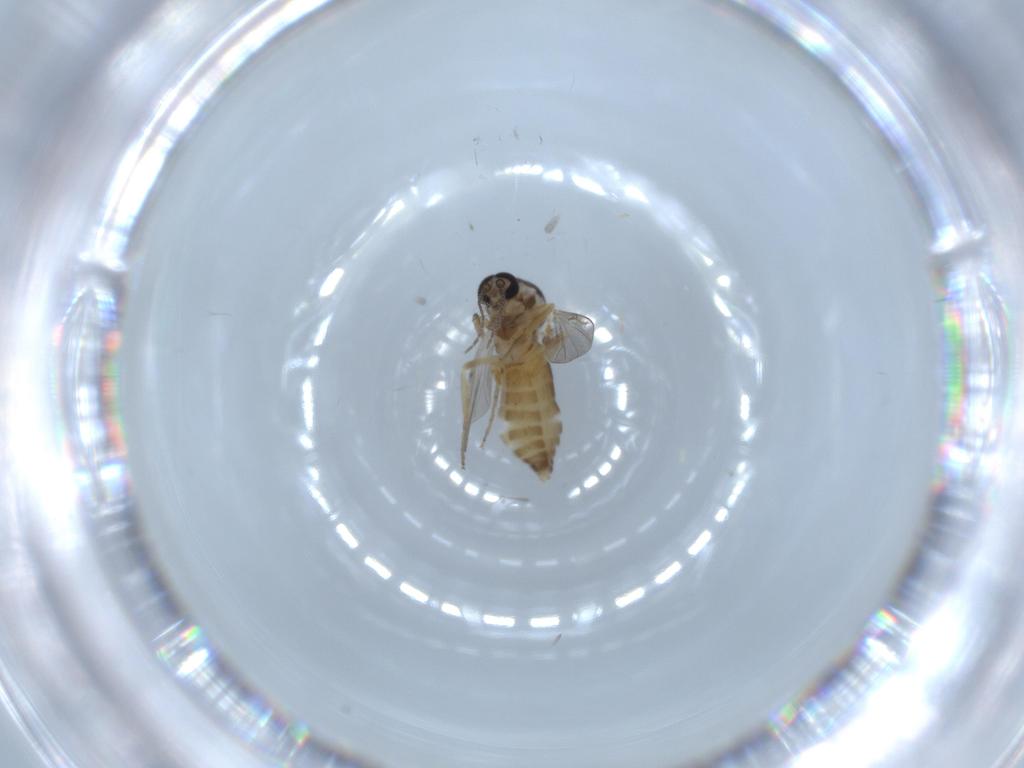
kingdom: Animalia
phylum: Arthropoda
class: Insecta
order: Diptera
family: Ceratopogonidae
